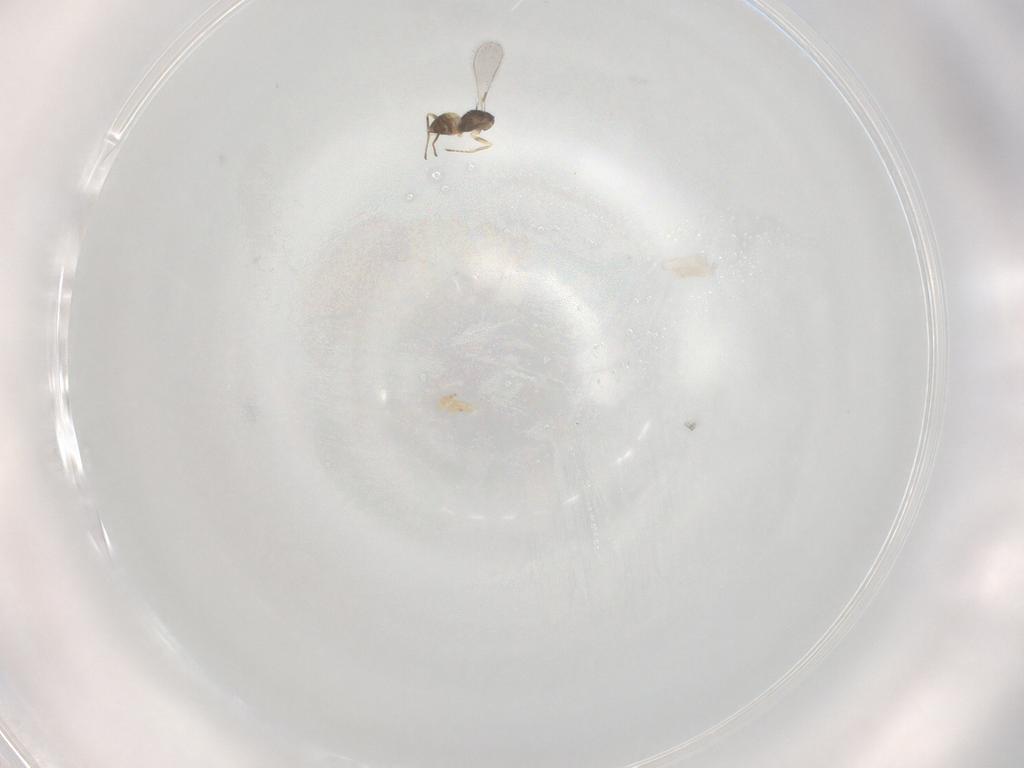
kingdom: Animalia
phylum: Arthropoda
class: Insecta
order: Hymenoptera
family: Mymaridae
